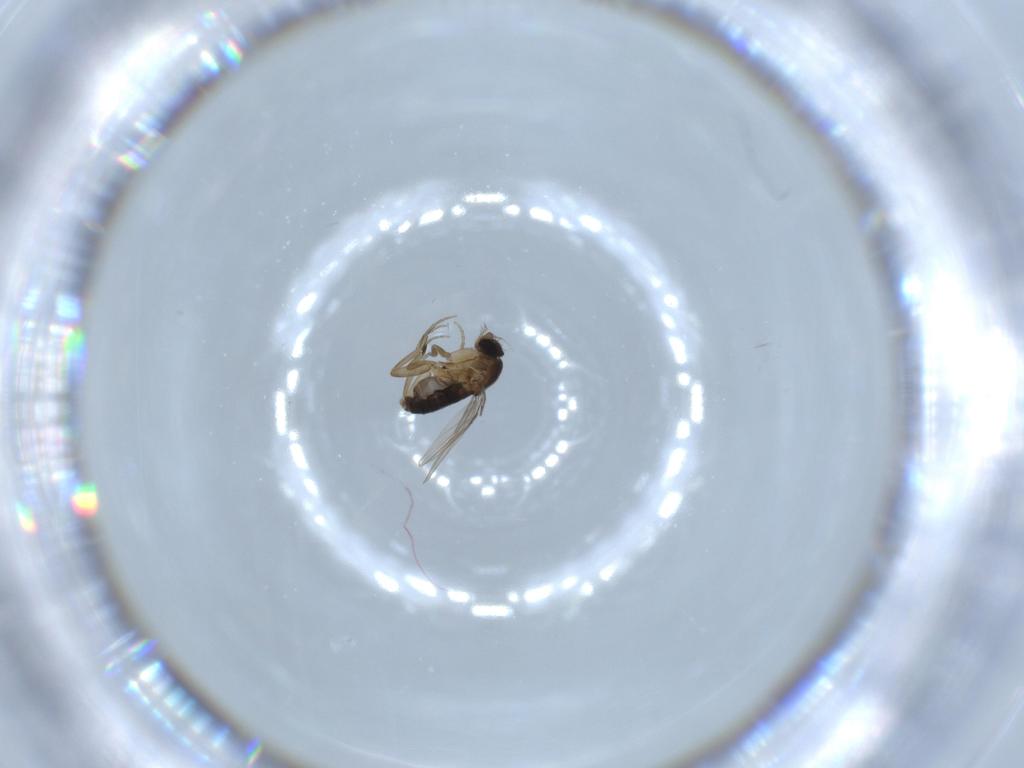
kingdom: Animalia
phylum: Arthropoda
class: Insecta
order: Diptera
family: Phoridae
